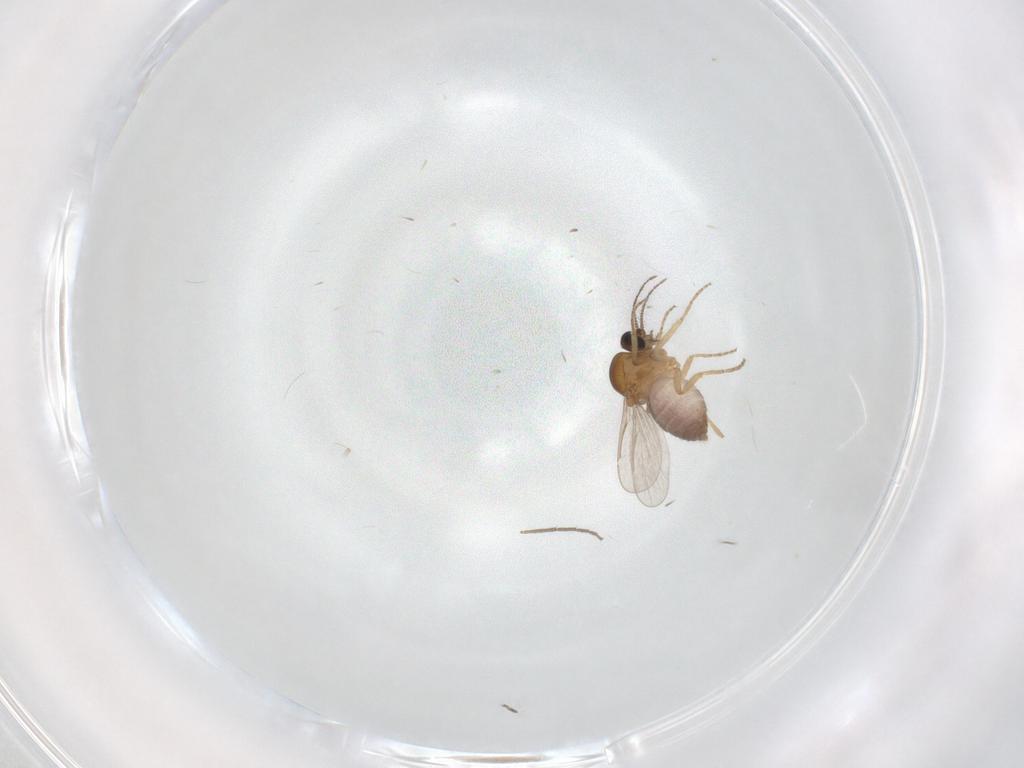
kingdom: Animalia
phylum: Arthropoda
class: Insecta
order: Diptera
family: Chironomidae
